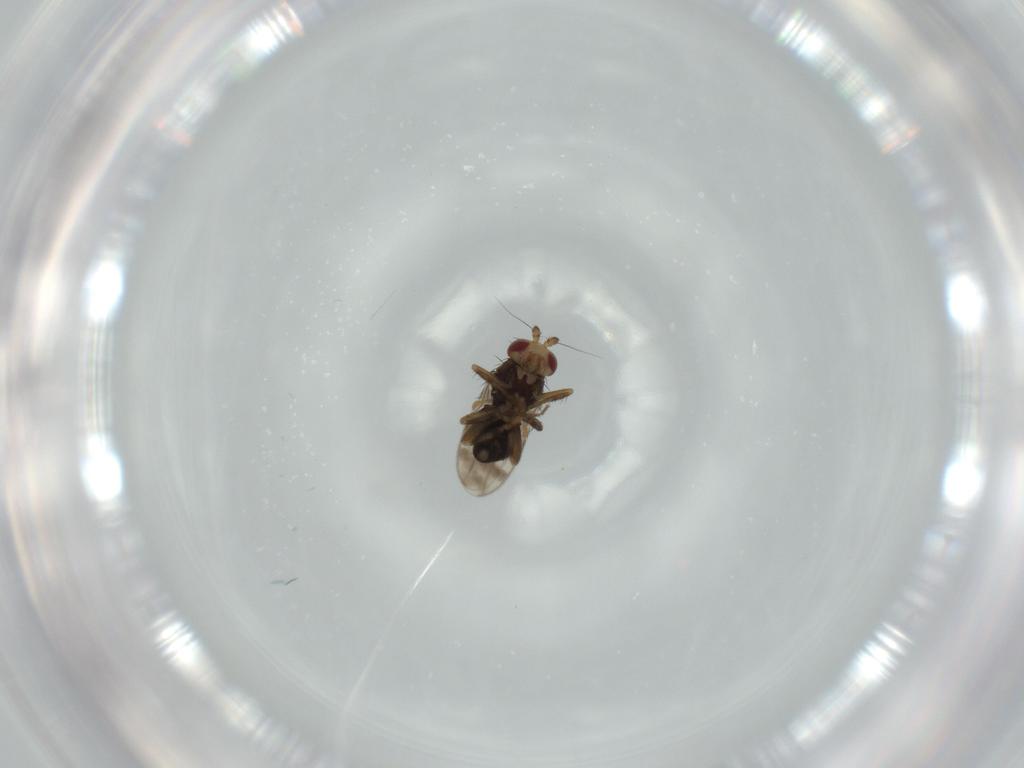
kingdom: Animalia
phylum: Arthropoda
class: Insecta
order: Diptera
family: Sphaeroceridae
